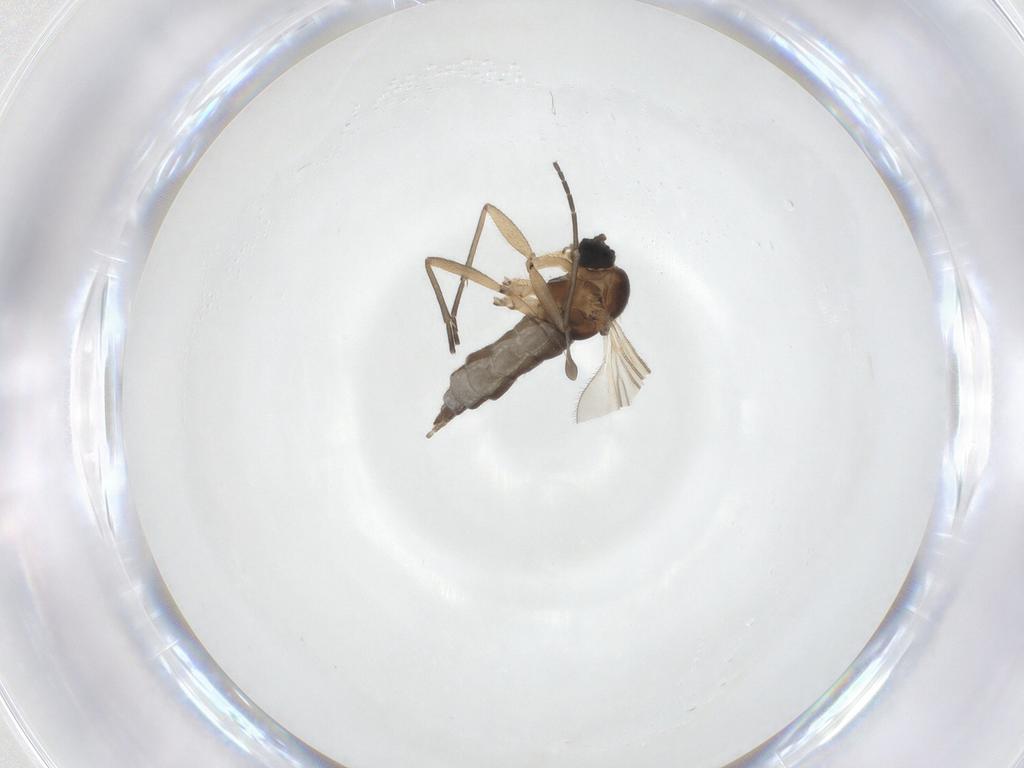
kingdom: Animalia
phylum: Arthropoda
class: Insecta
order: Diptera
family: Sciaridae
